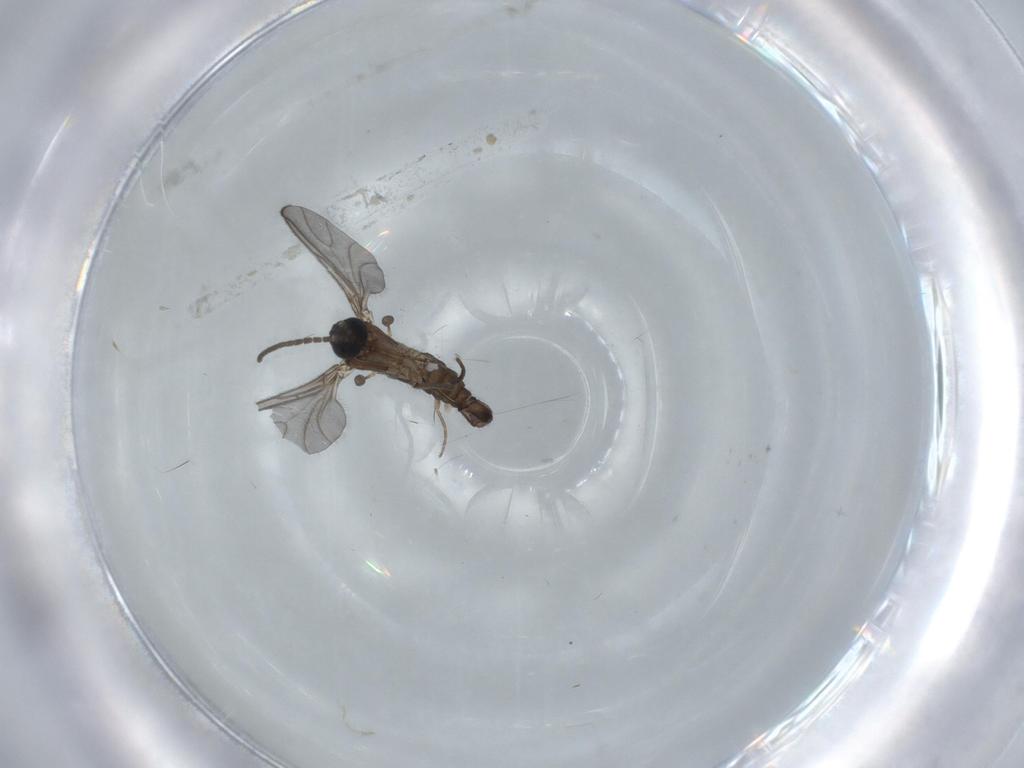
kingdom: Animalia
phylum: Arthropoda
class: Insecta
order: Diptera
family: Sciaridae
